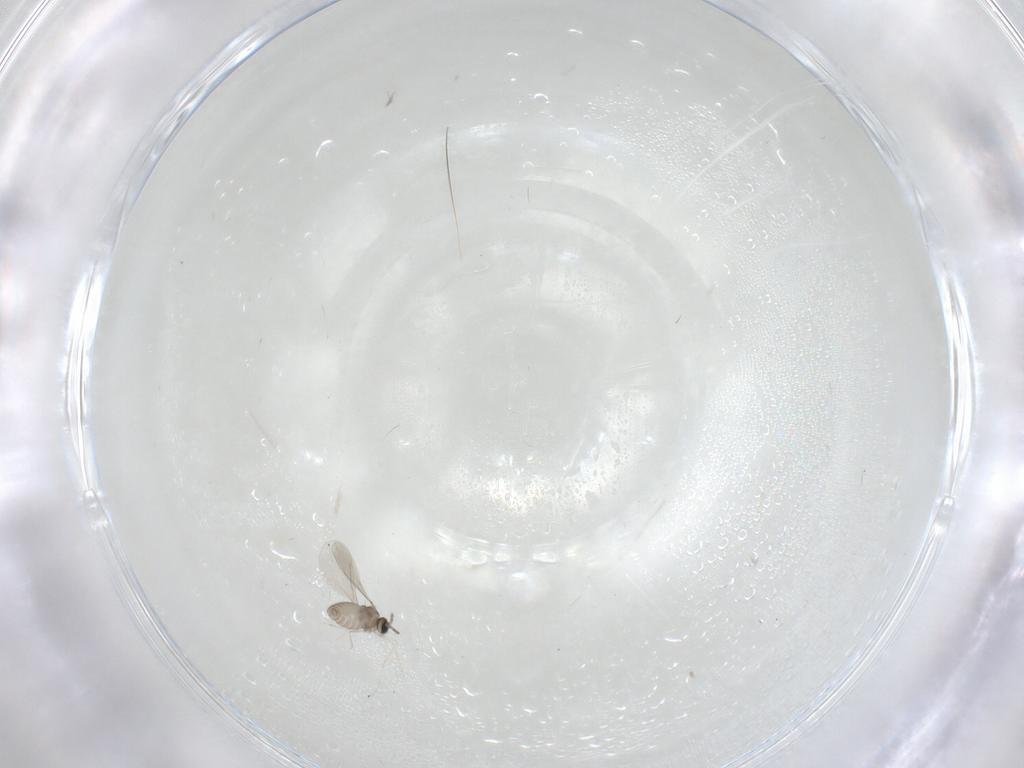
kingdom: Animalia
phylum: Arthropoda
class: Insecta
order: Diptera
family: Cecidomyiidae
